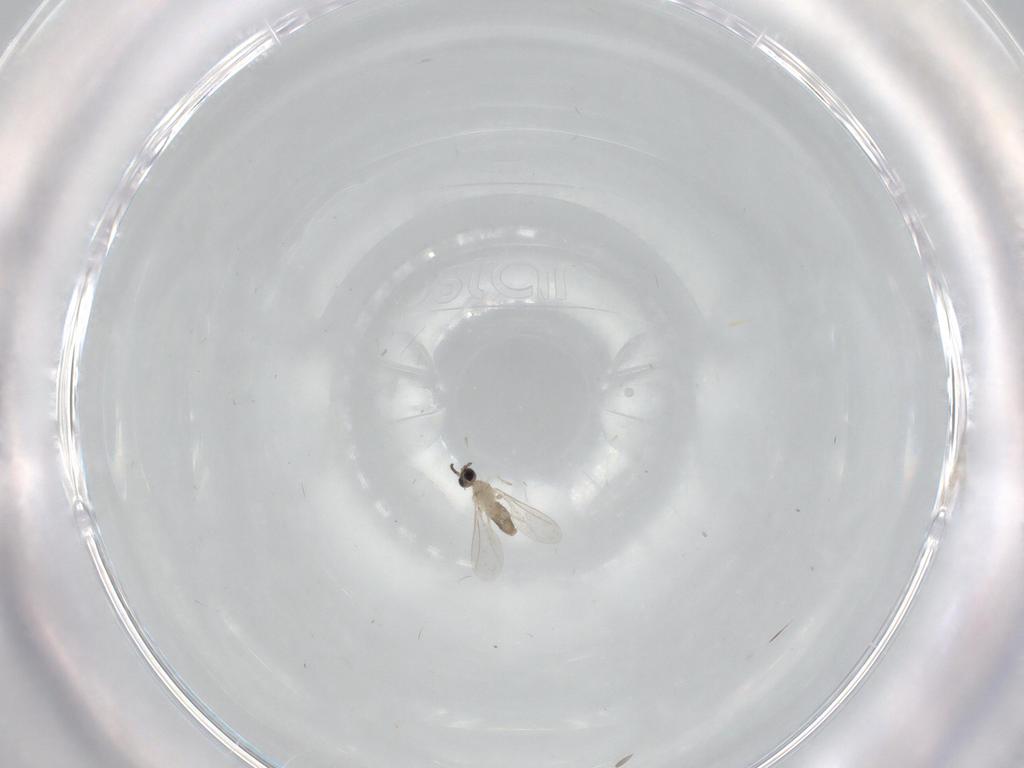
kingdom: Animalia
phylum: Arthropoda
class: Insecta
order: Diptera
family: Cecidomyiidae
